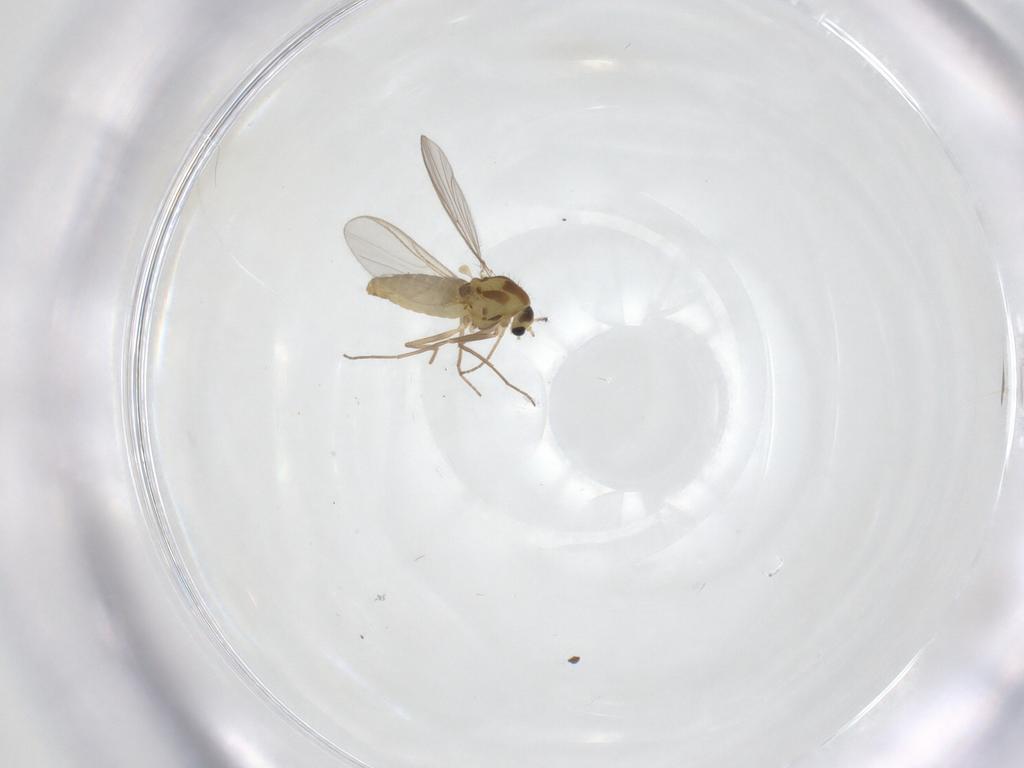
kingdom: Animalia
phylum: Arthropoda
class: Insecta
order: Diptera
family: Chironomidae
